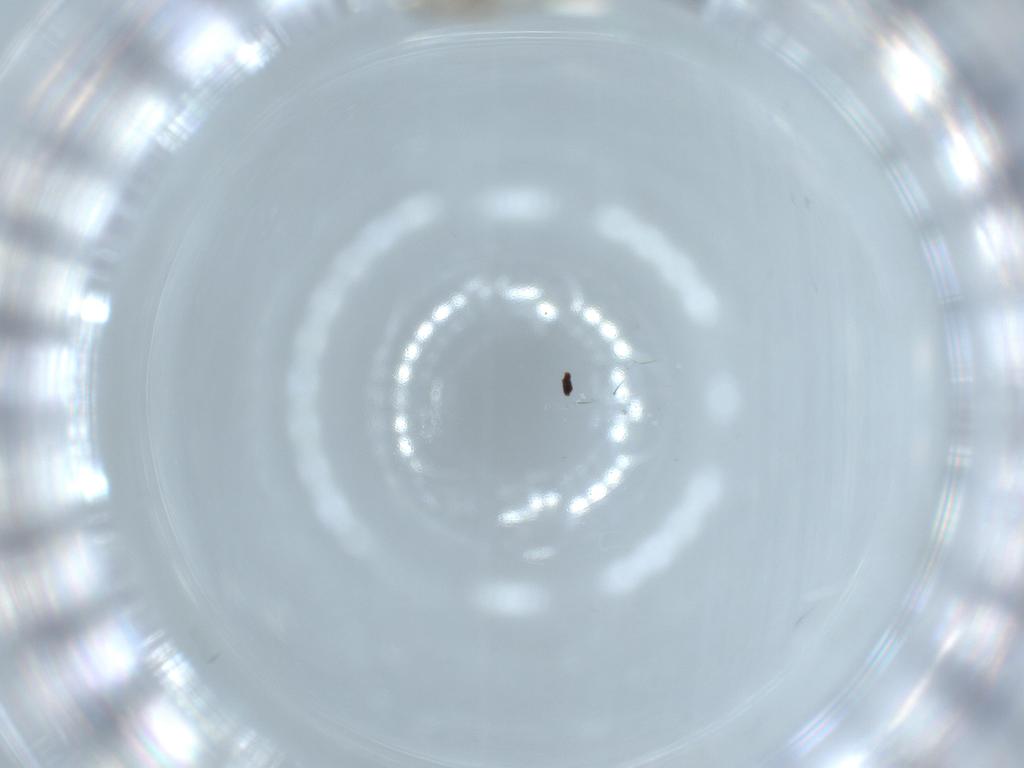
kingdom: Animalia
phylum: Arthropoda
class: Insecta
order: Diptera
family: Chironomidae
